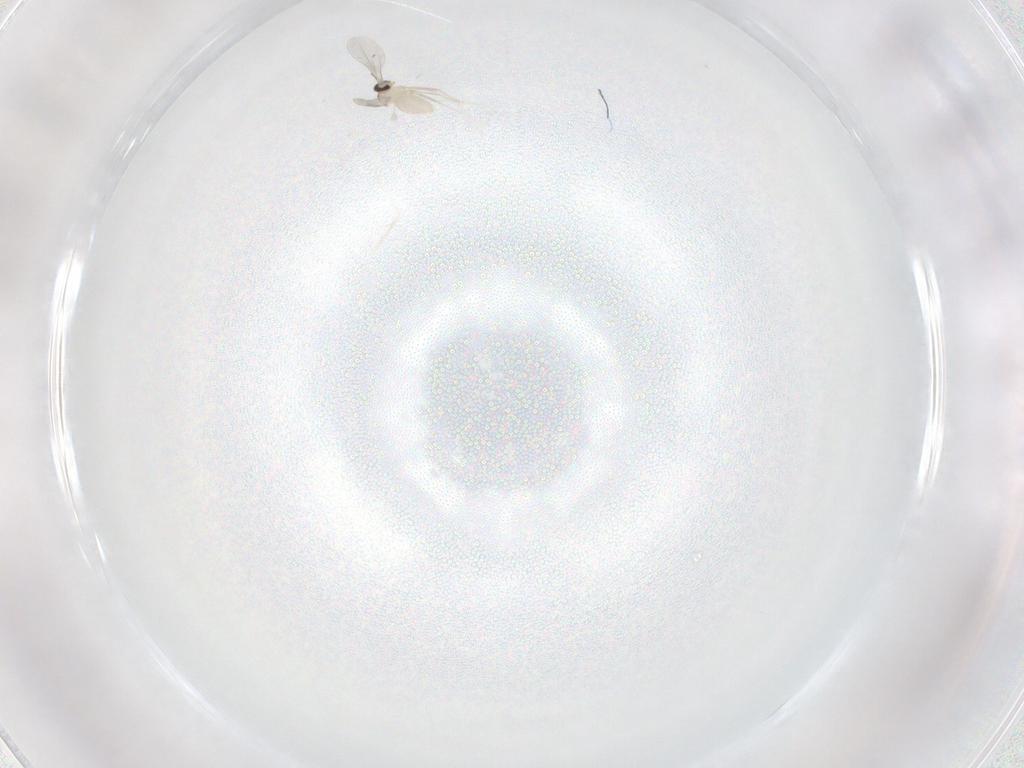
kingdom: Animalia
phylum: Arthropoda
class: Insecta
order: Diptera
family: Cecidomyiidae
